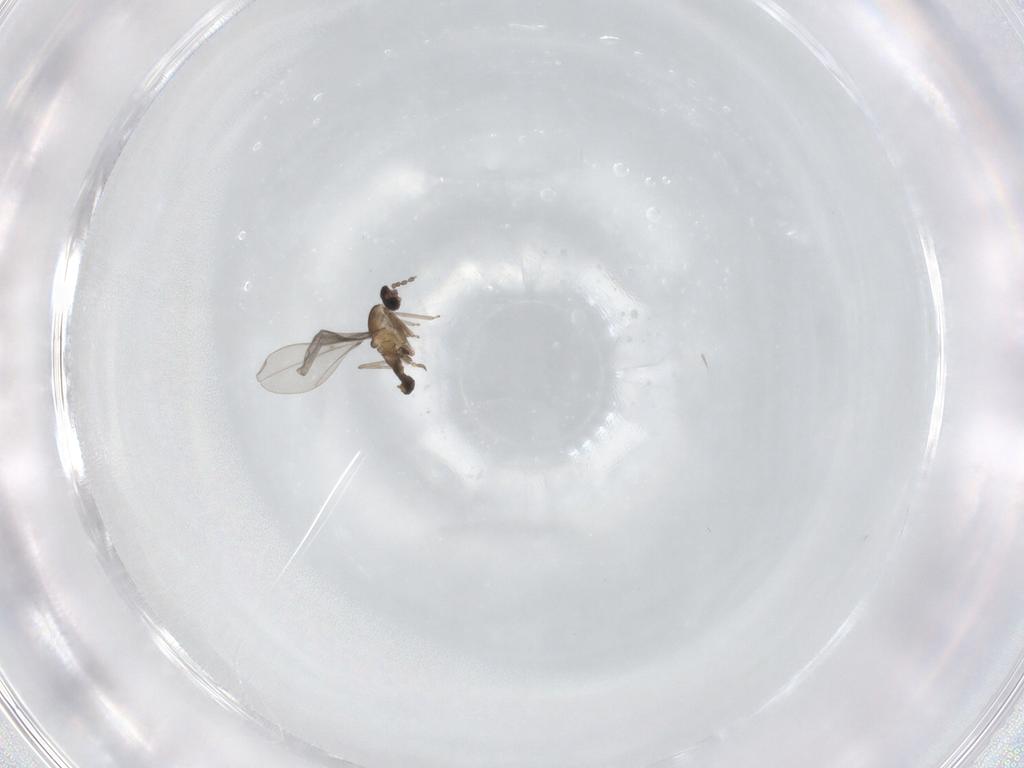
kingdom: Animalia
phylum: Arthropoda
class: Insecta
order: Diptera
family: Cecidomyiidae
